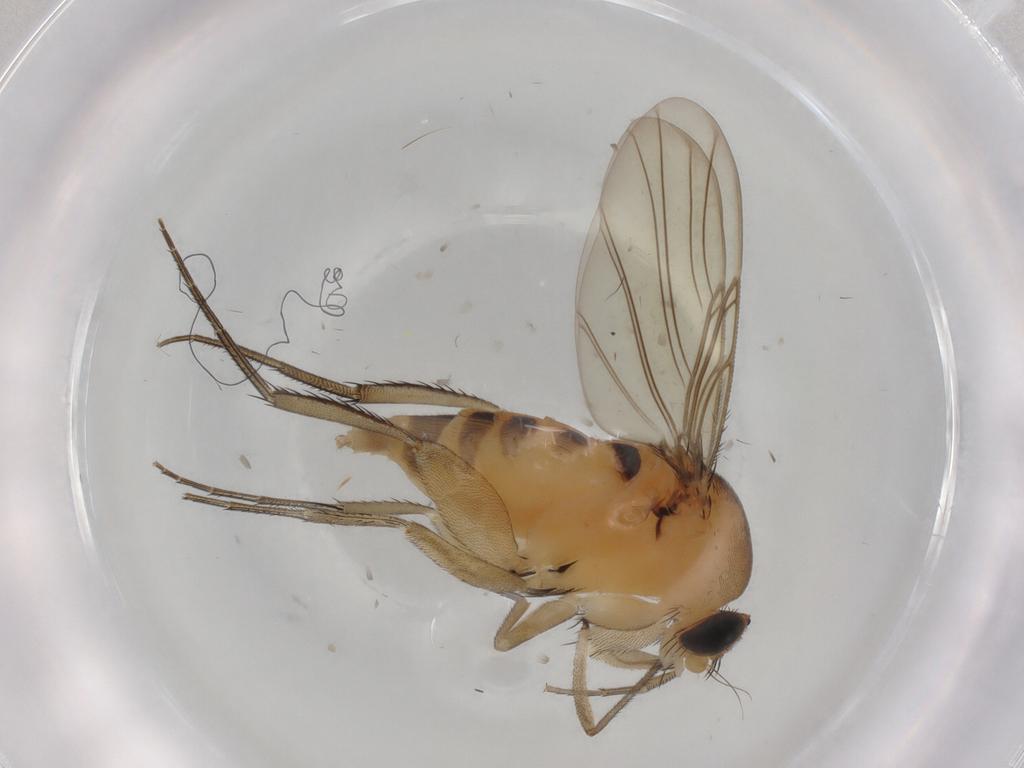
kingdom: Animalia
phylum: Arthropoda
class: Insecta
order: Diptera
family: Phoridae
